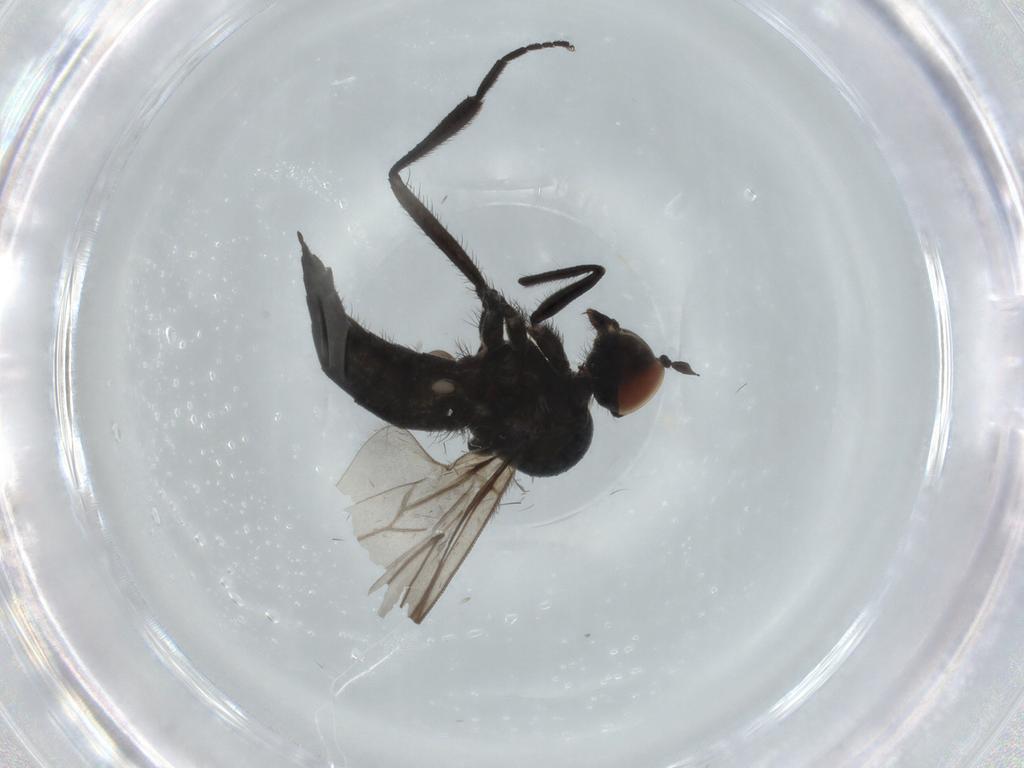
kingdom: Animalia
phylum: Arthropoda
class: Insecta
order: Diptera
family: Hybotidae
